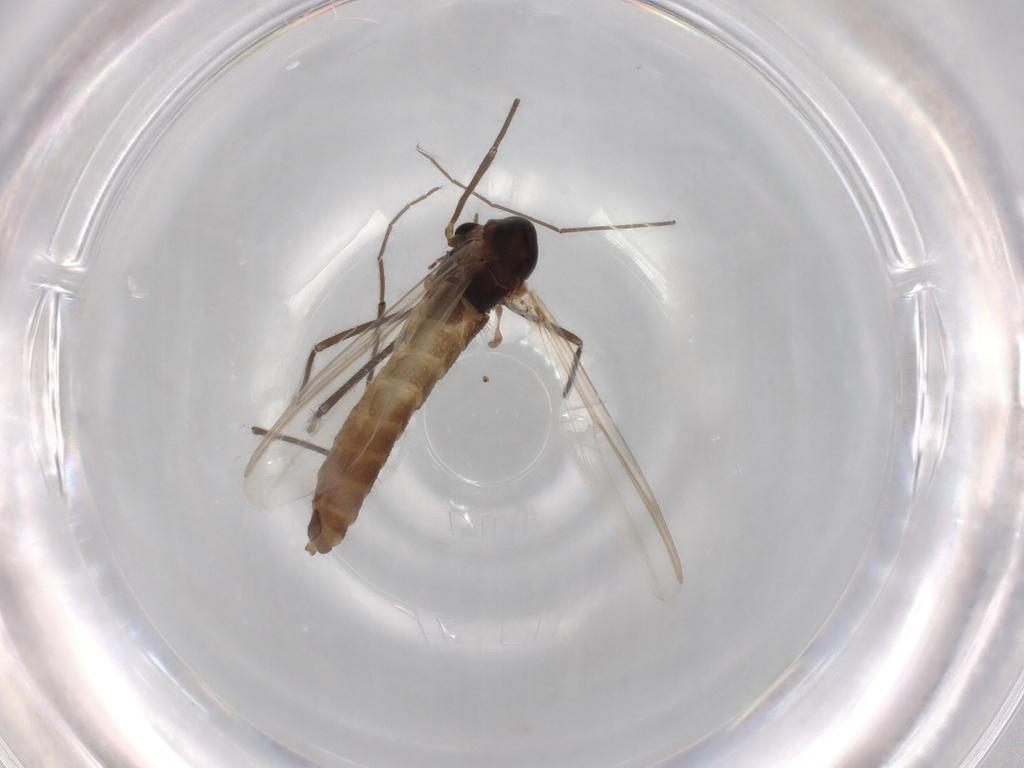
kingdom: Animalia
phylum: Arthropoda
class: Insecta
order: Diptera
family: Chironomidae
